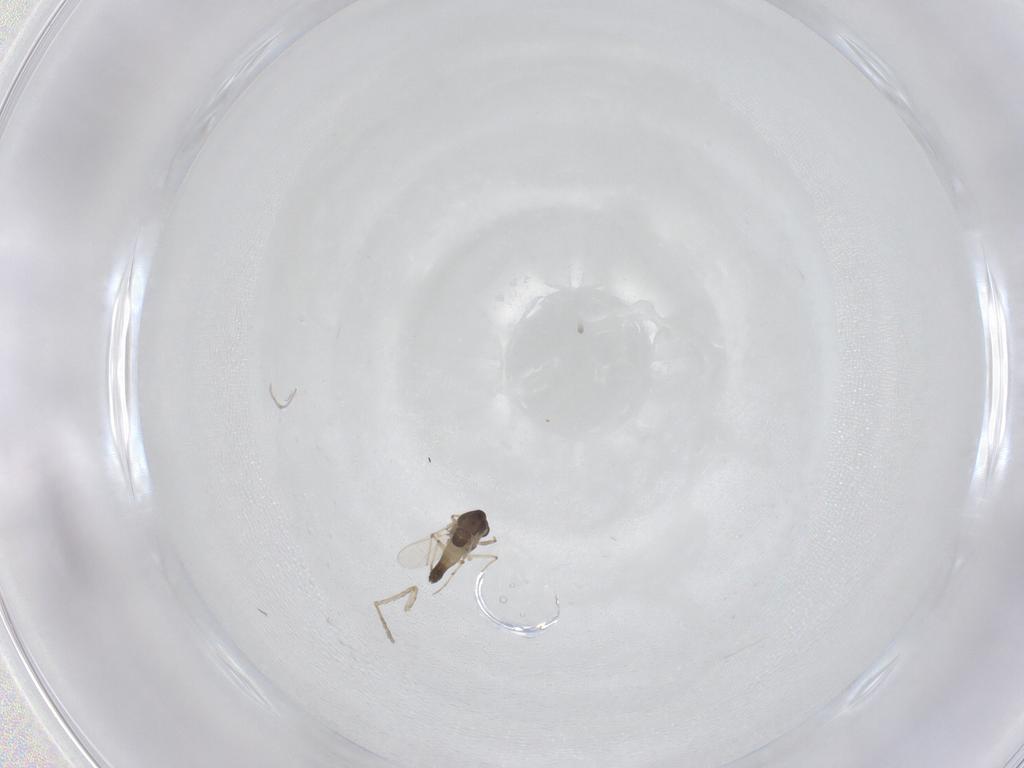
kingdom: Animalia
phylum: Arthropoda
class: Insecta
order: Diptera
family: Chironomidae
